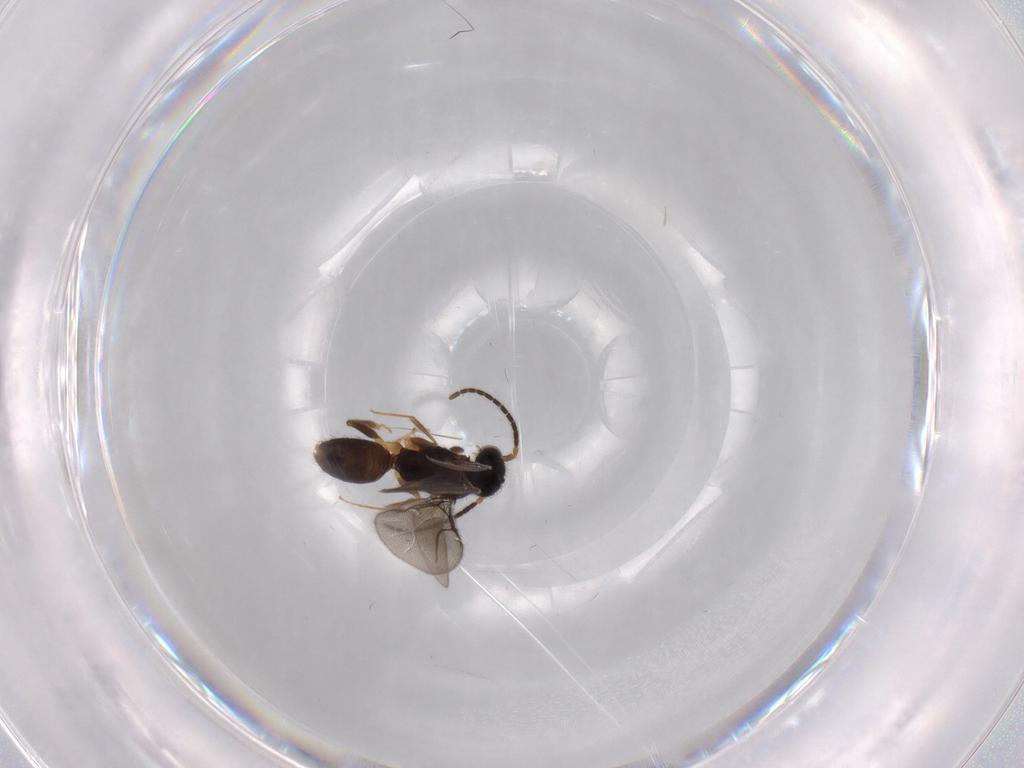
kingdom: Animalia
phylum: Arthropoda
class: Insecta
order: Hymenoptera
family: Bethylidae
